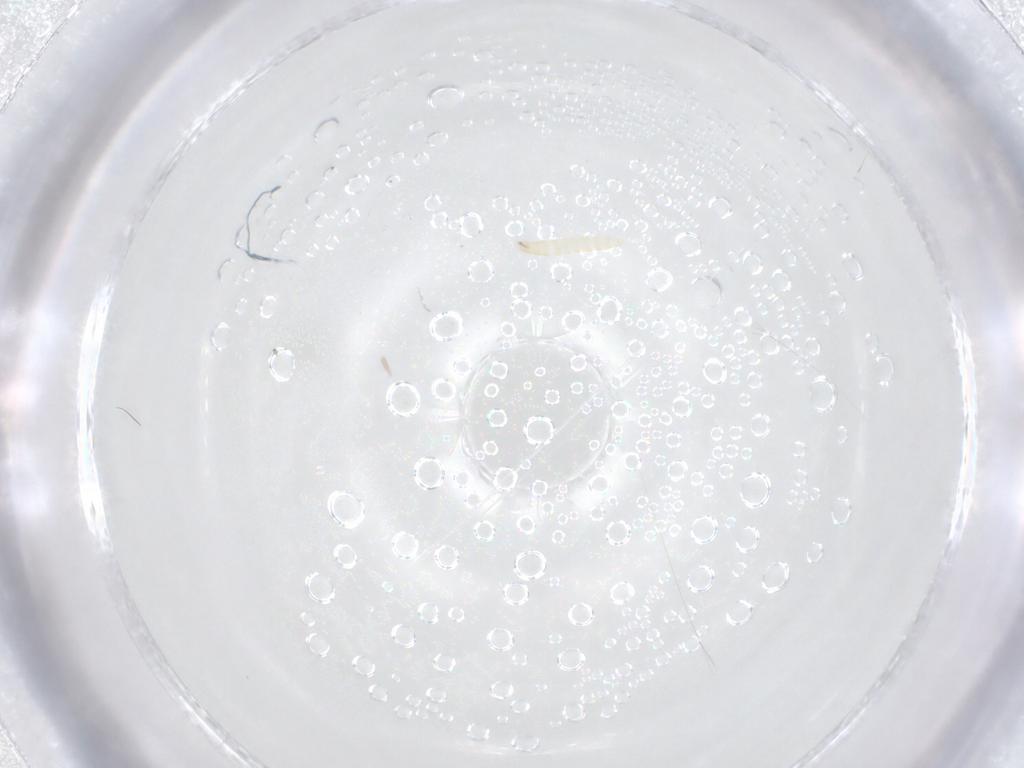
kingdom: Animalia
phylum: Arthropoda
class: Insecta
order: Diptera
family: Tachinidae
